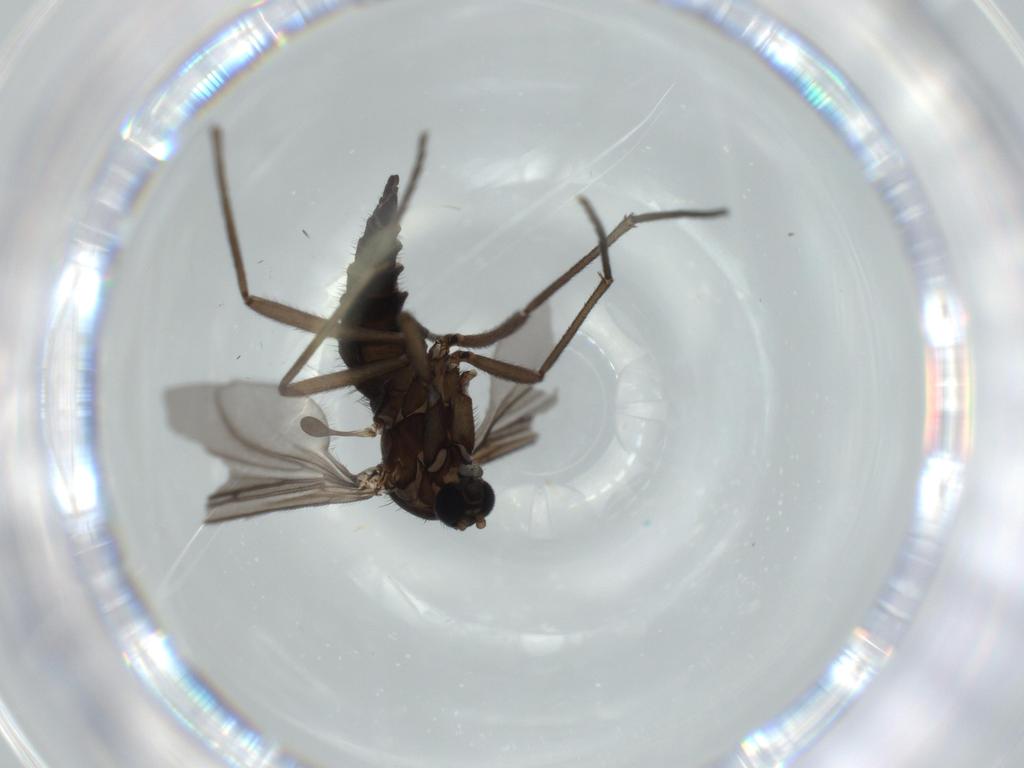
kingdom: Animalia
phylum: Arthropoda
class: Insecta
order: Diptera
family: Sciaridae
